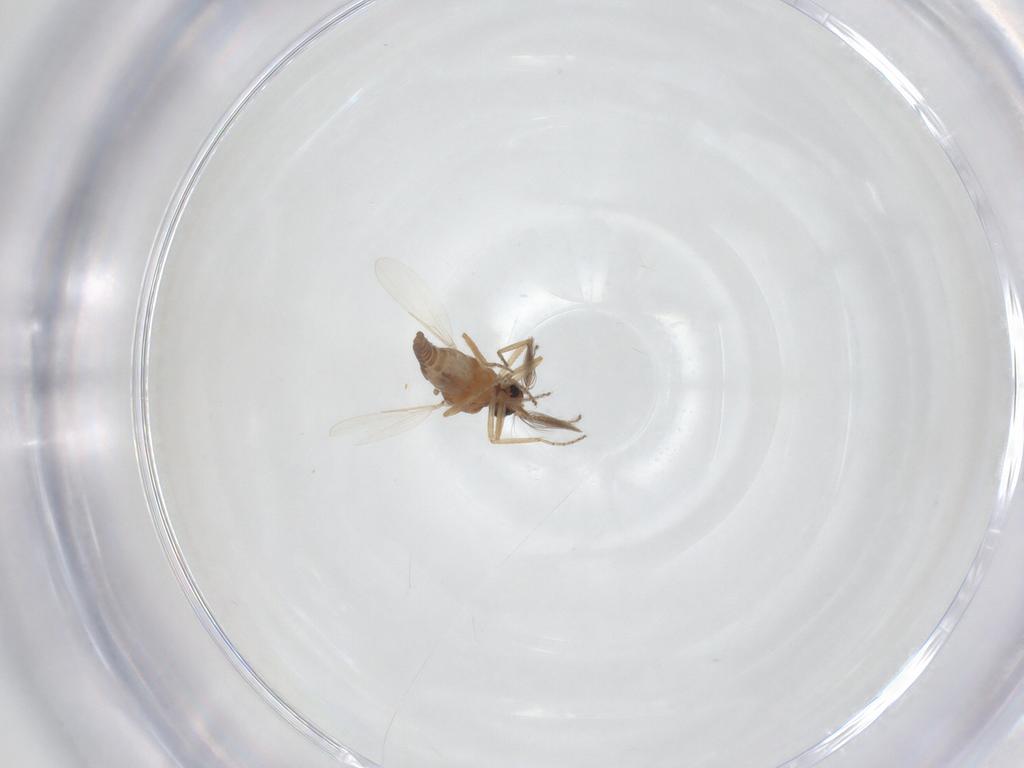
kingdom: Animalia
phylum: Arthropoda
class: Insecta
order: Diptera
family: Ceratopogonidae
